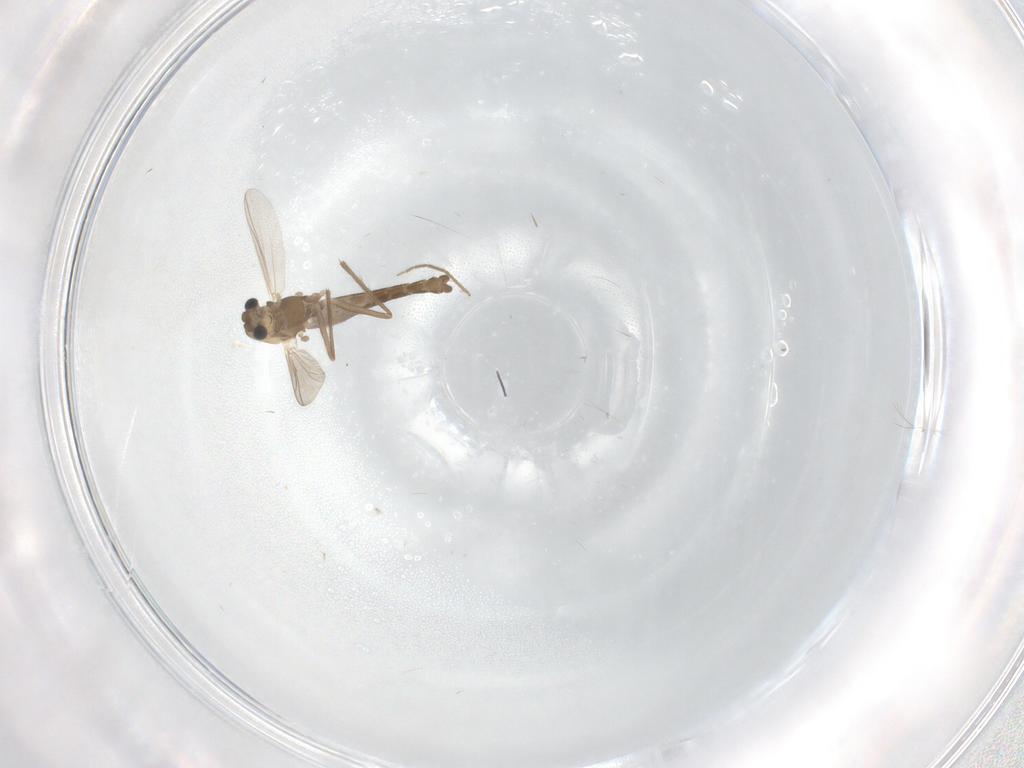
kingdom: Animalia
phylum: Arthropoda
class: Insecta
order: Diptera
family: Chironomidae
